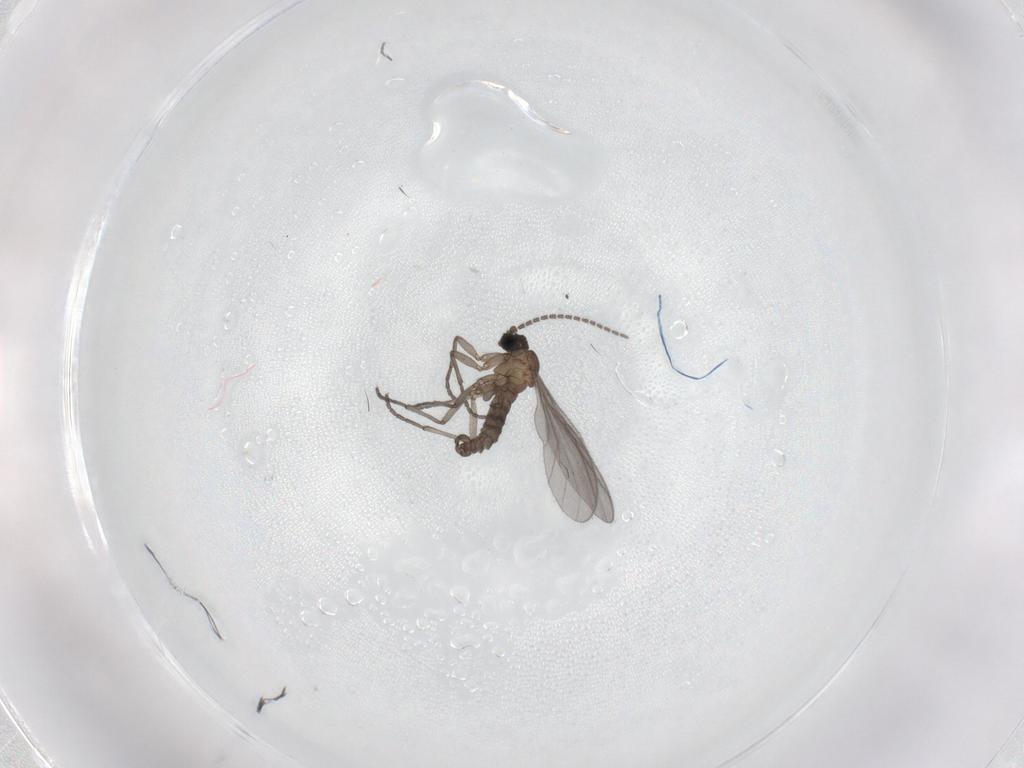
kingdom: Animalia
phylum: Arthropoda
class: Insecta
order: Diptera
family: Sciaridae
